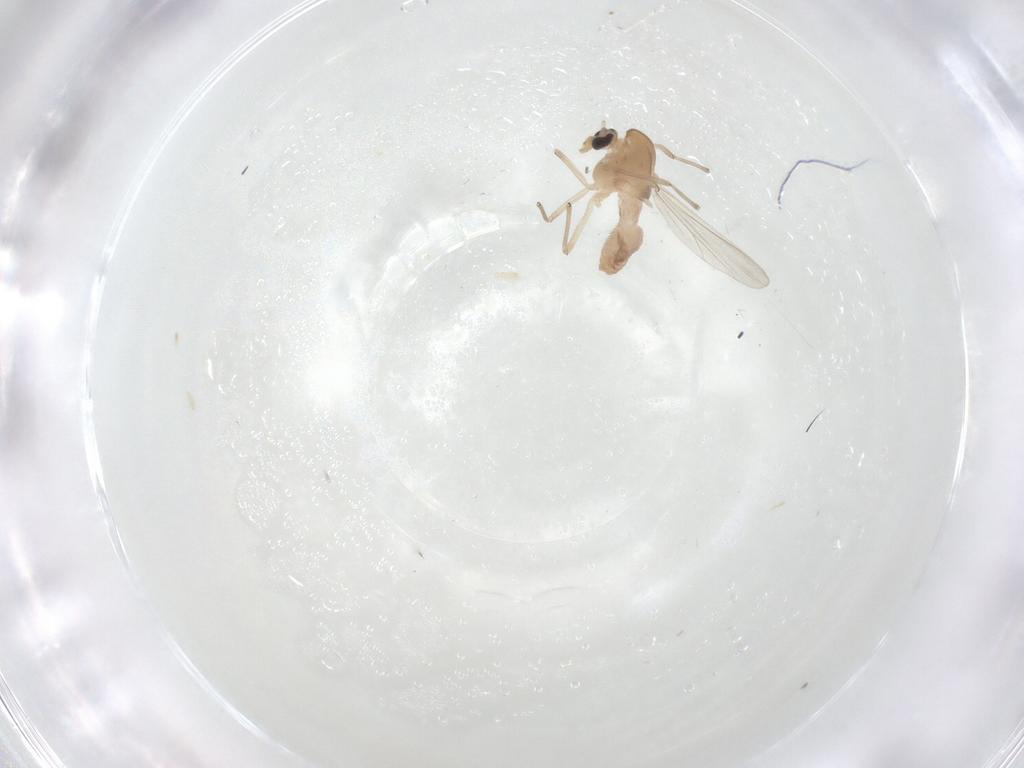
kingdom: Animalia
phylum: Arthropoda
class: Insecta
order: Diptera
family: Chironomidae
